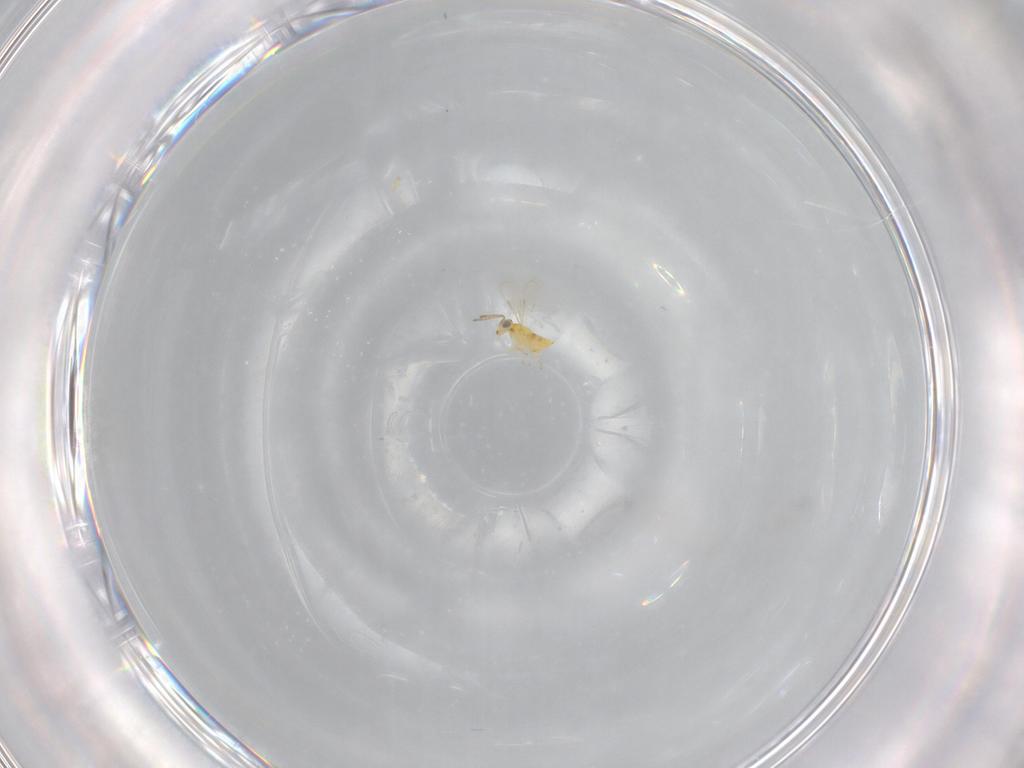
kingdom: Animalia
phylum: Arthropoda
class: Insecta
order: Hymenoptera
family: Aphelinidae
